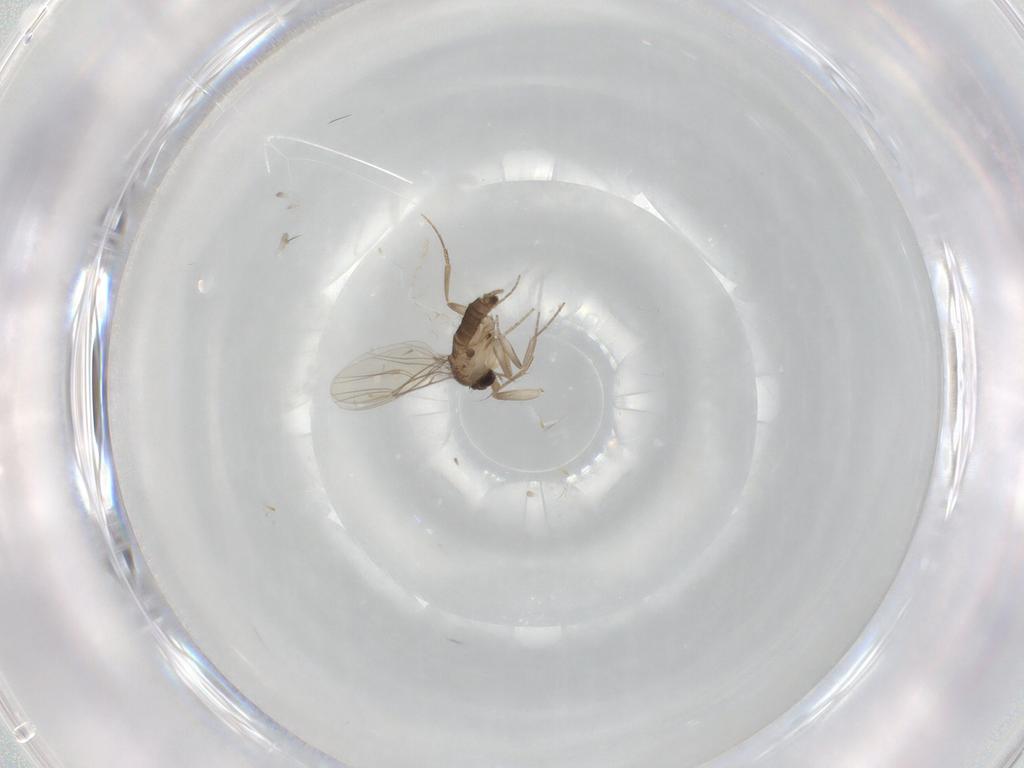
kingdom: Animalia
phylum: Arthropoda
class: Insecta
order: Diptera
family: Cecidomyiidae
